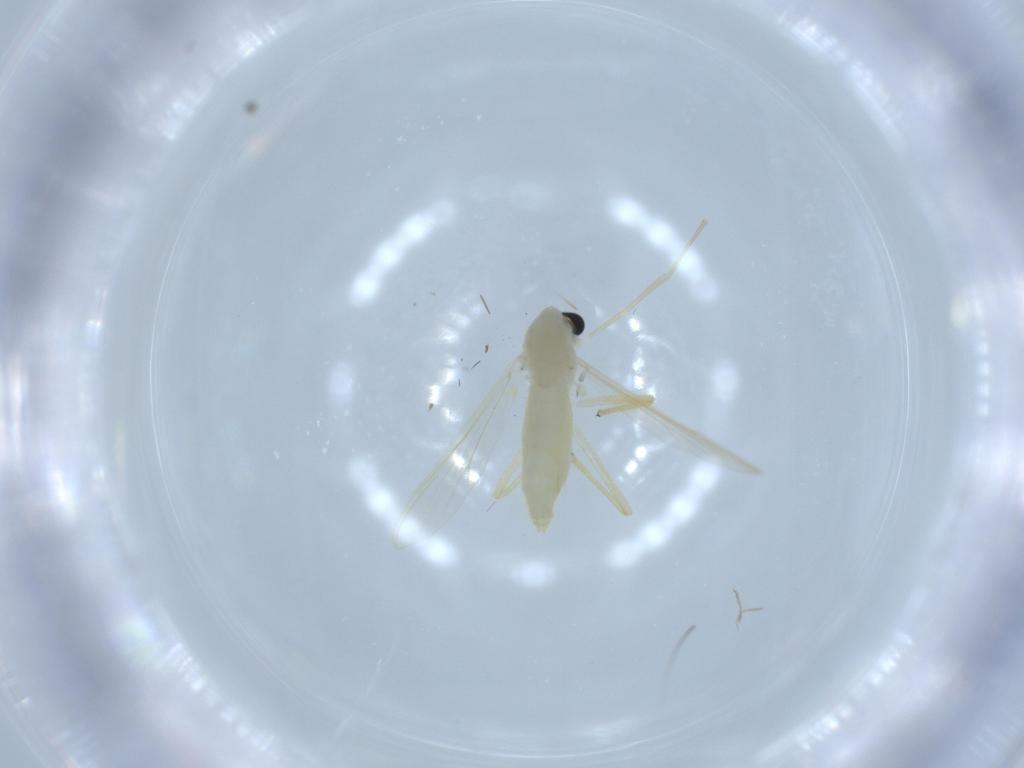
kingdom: Animalia
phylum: Arthropoda
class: Insecta
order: Diptera
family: Chironomidae
